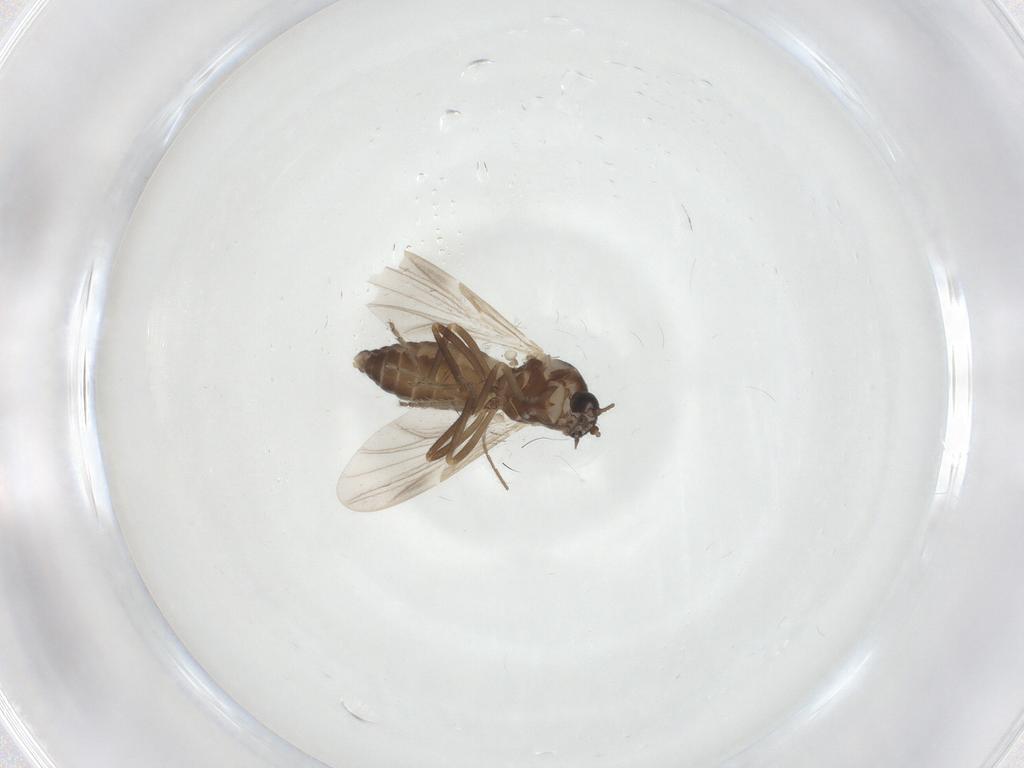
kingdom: Animalia
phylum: Arthropoda
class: Insecta
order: Diptera
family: Ceratopogonidae
